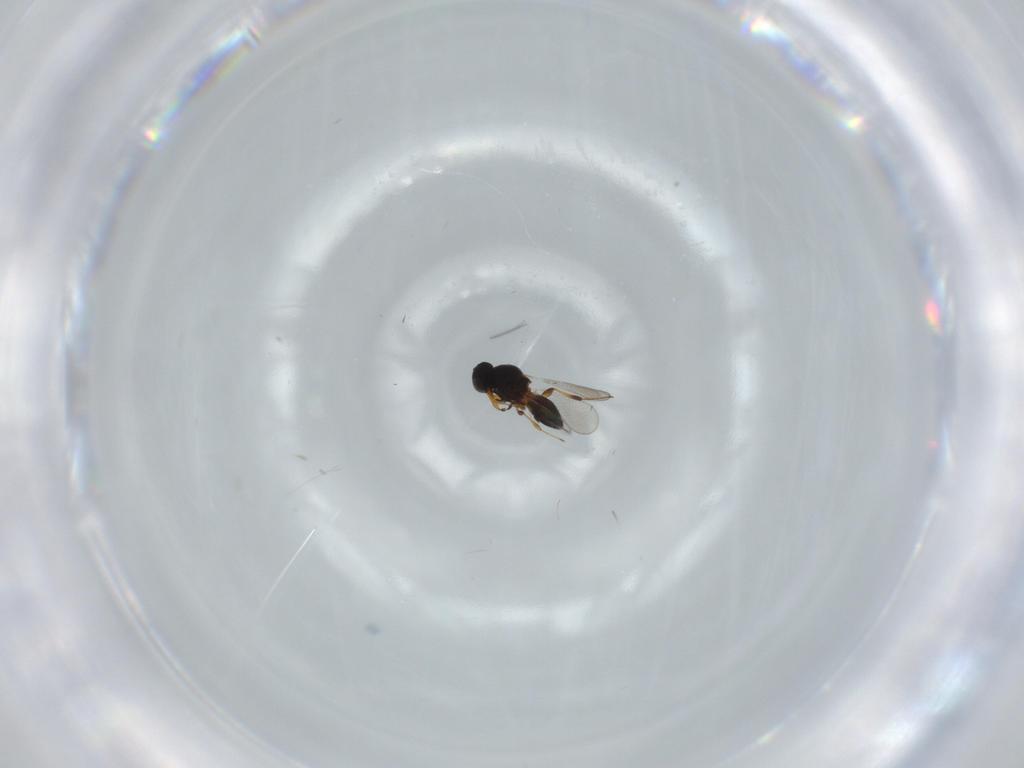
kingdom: Animalia
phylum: Arthropoda
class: Insecta
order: Hymenoptera
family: Platygastridae
